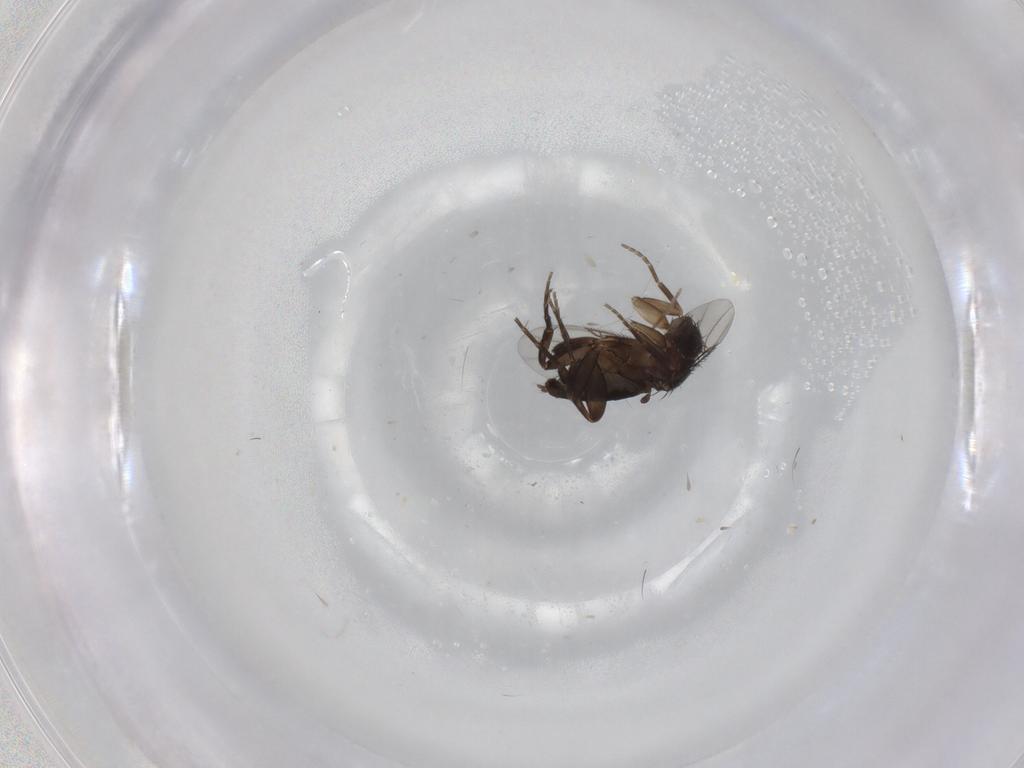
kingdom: Animalia
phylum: Arthropoda
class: Insecta
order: Diptera
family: Phoridae
